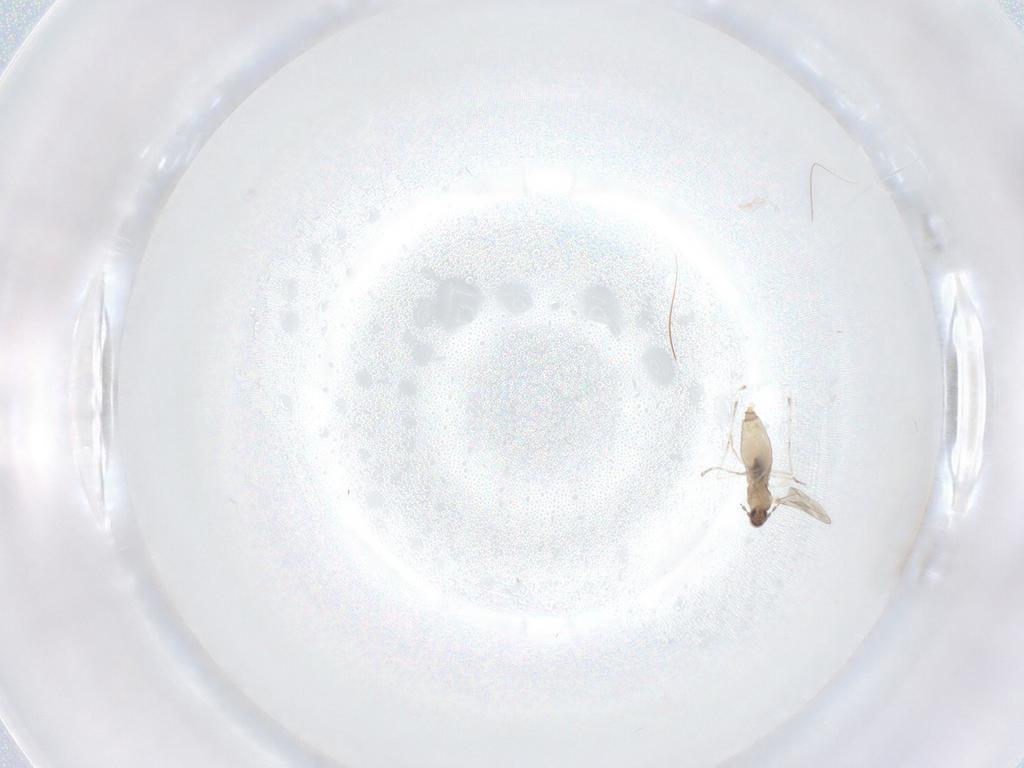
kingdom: Animalia
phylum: Arthropoda
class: Insecta
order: Diptera
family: Cecidomyiidae
